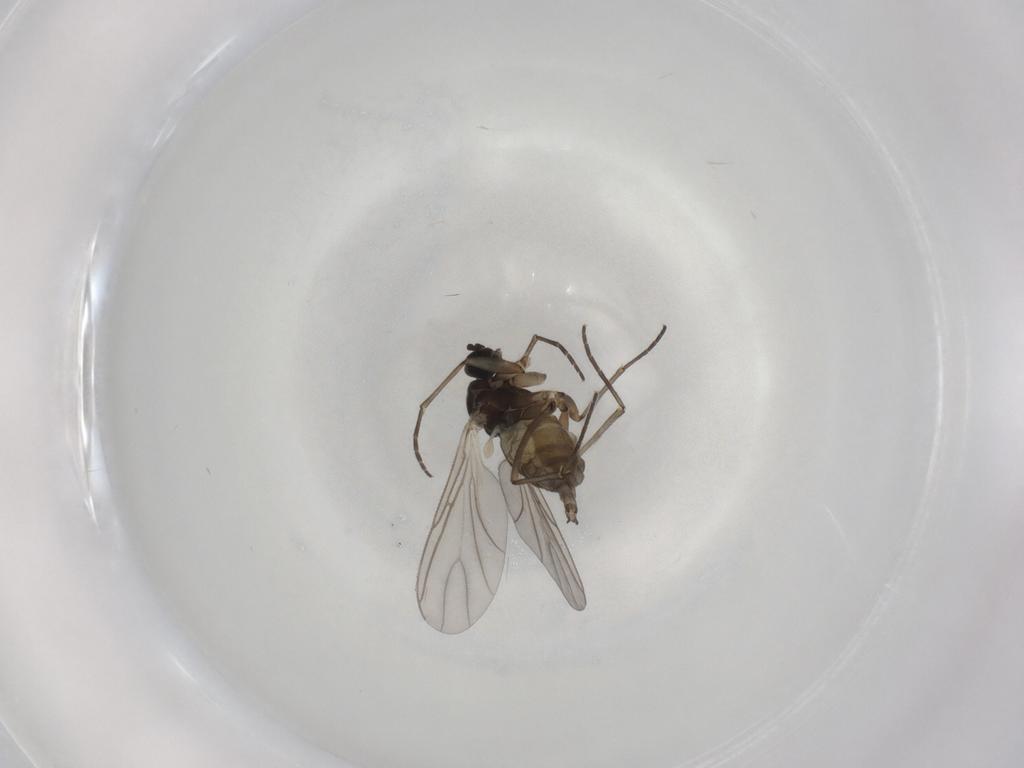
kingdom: Animalia
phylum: Arthropoda
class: Insecta
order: Diptera
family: Sciaridae
